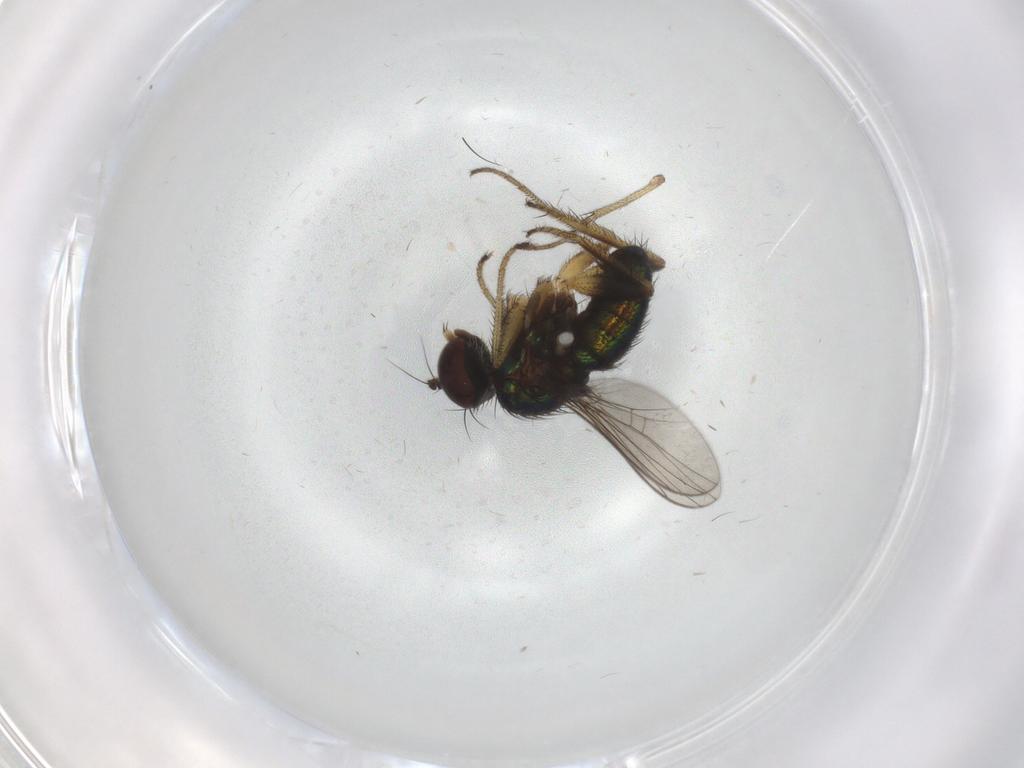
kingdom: Animalia
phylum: Arthropoda
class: Insecta
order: Diptera
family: Dolichopodidae
